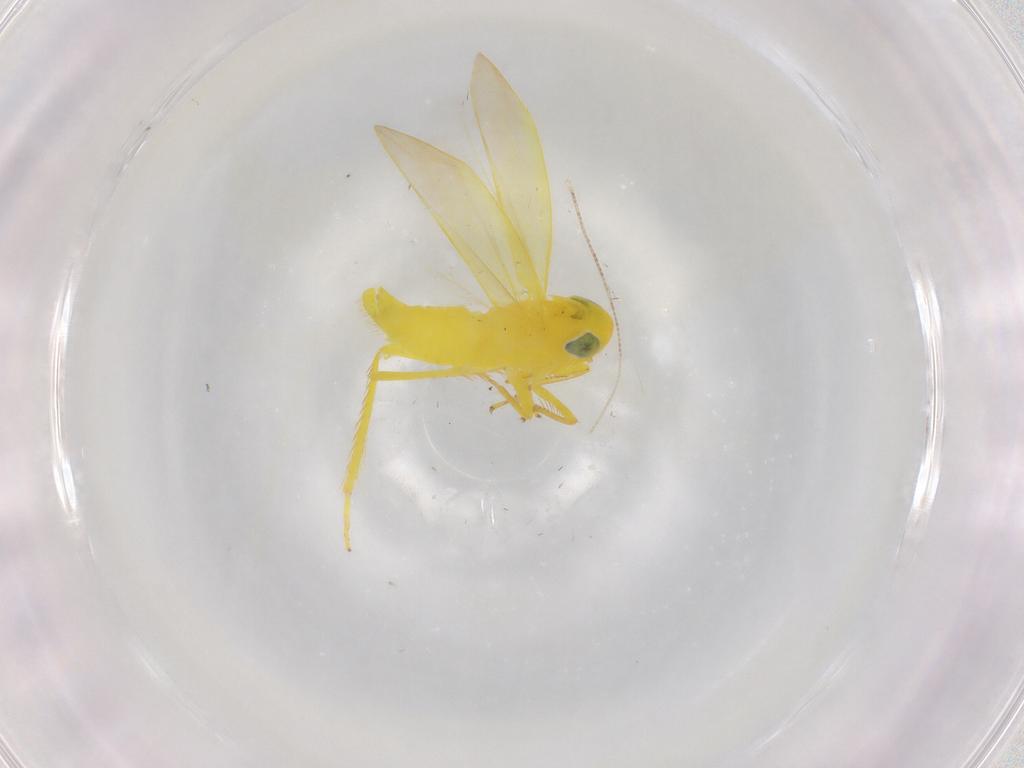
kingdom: Animalia
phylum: Arthropoda
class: Insecta
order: Hemiptera
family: Cicadellidae
